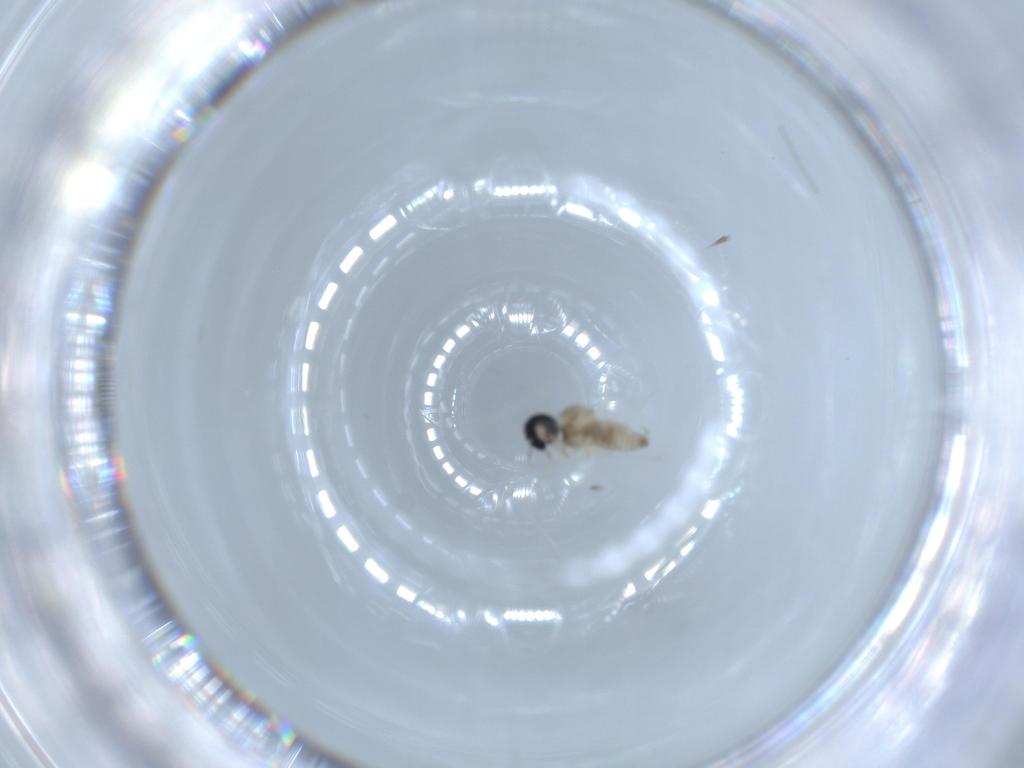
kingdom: Animalia
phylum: Arthropoda
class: Insecta
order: Diptera
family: Cecidomyiidae
